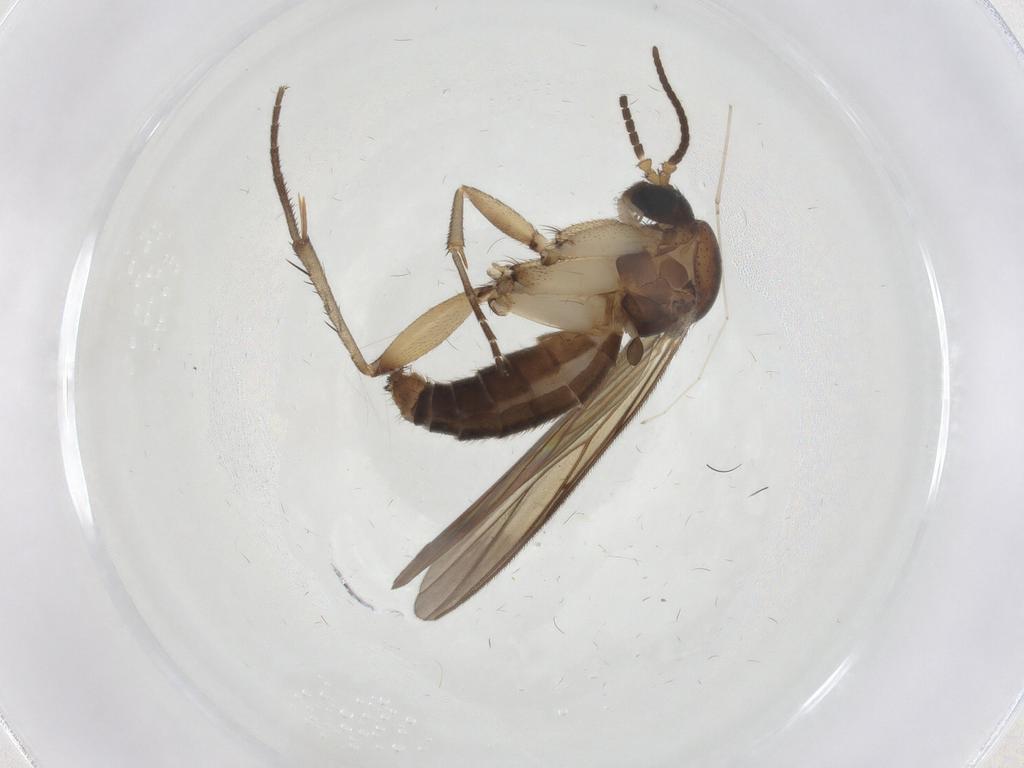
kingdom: Animalia
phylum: Arthropoda
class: Insecta
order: Diptera
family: Mycetophilidae
